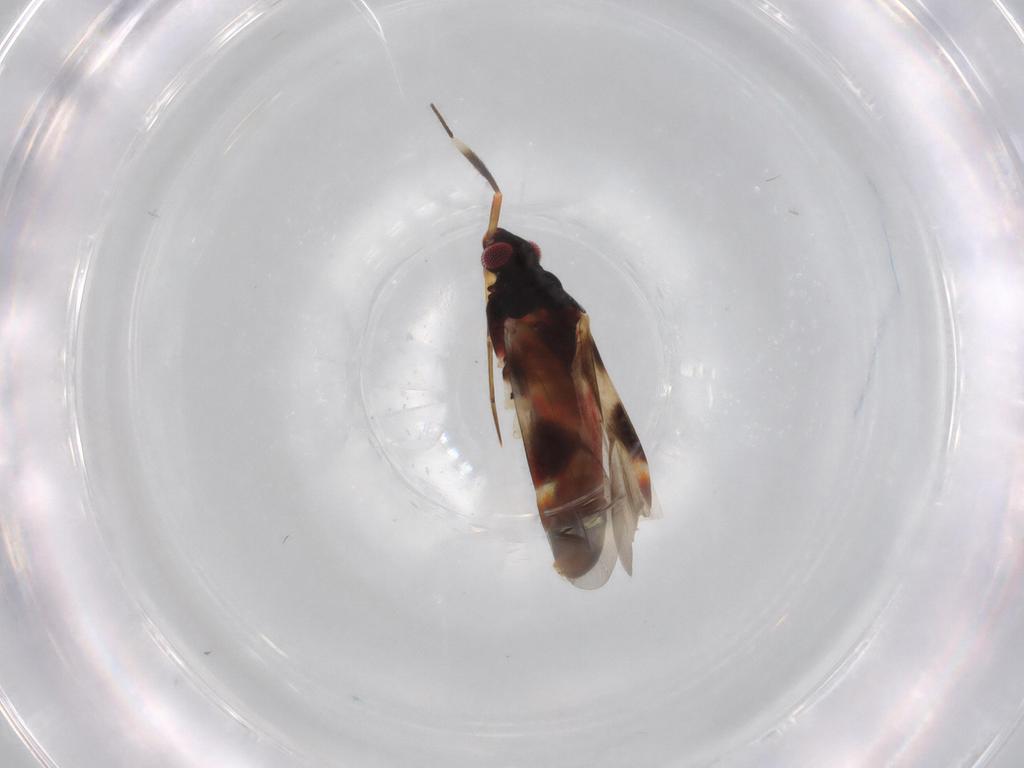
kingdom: Animalia
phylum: Arthropoda
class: Insecta
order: Hemiptera
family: Miridae
